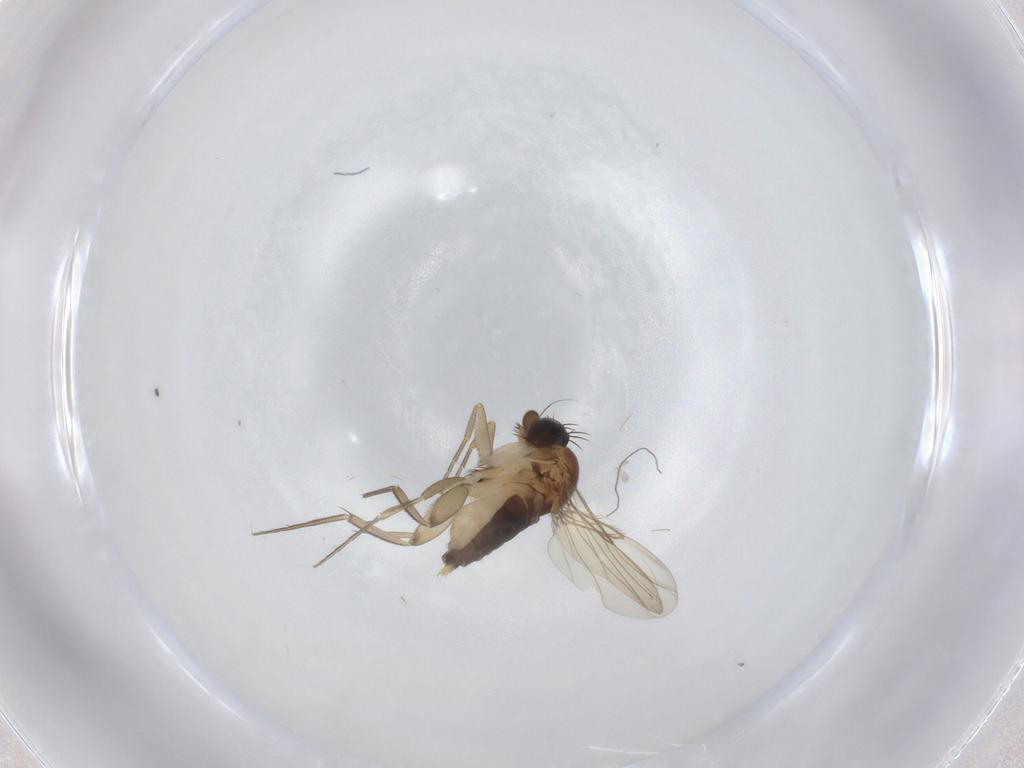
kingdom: Animalia
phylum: Arthropoda
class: Insecta
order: Diptera
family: Phoridae
